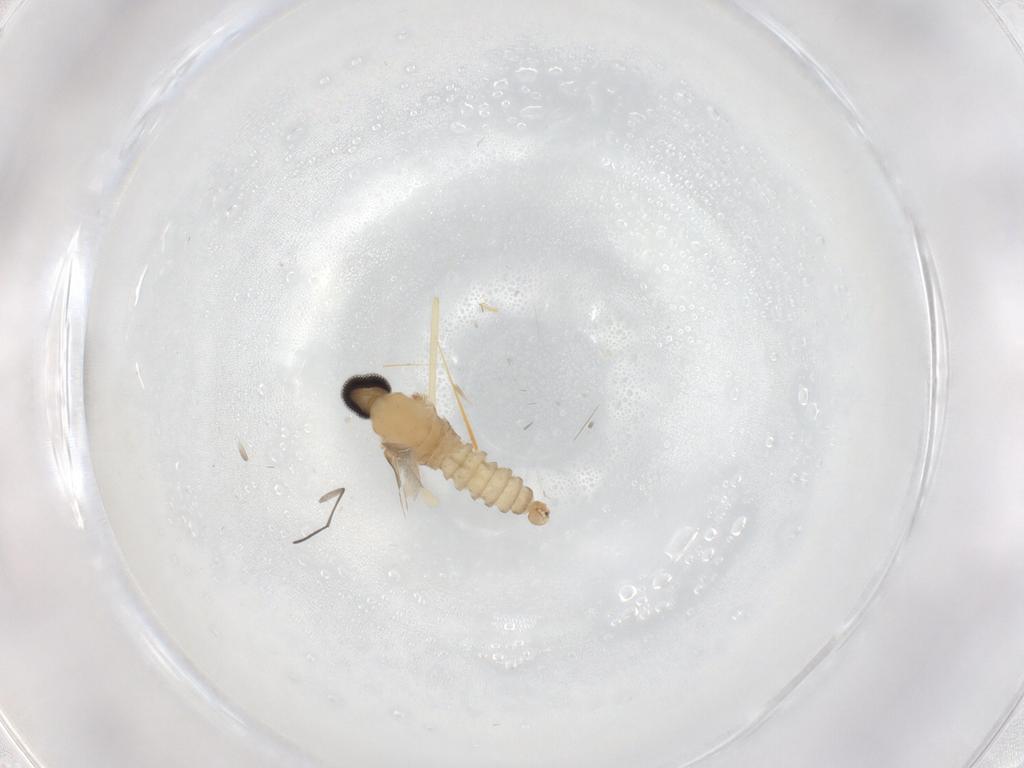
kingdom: Animalia
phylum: Arthropoda
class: Insecta
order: Diptera
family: Sciaridae
